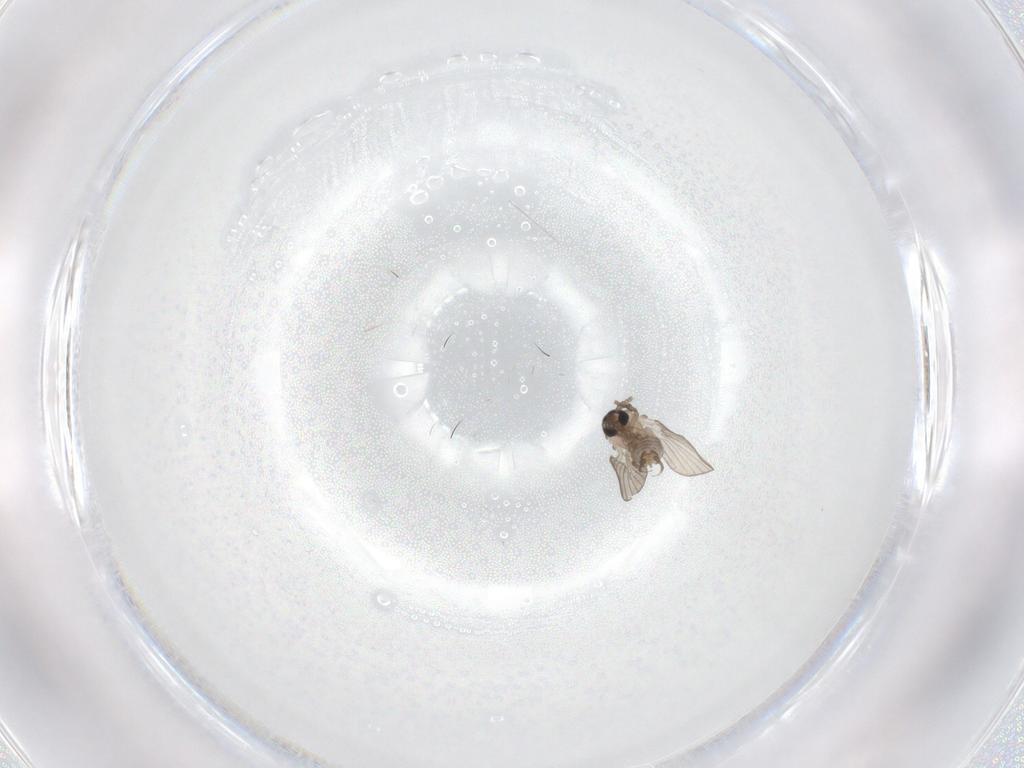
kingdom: Animalia
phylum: Arthropoda
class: Insecta
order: Diptera
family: Psychodidae
